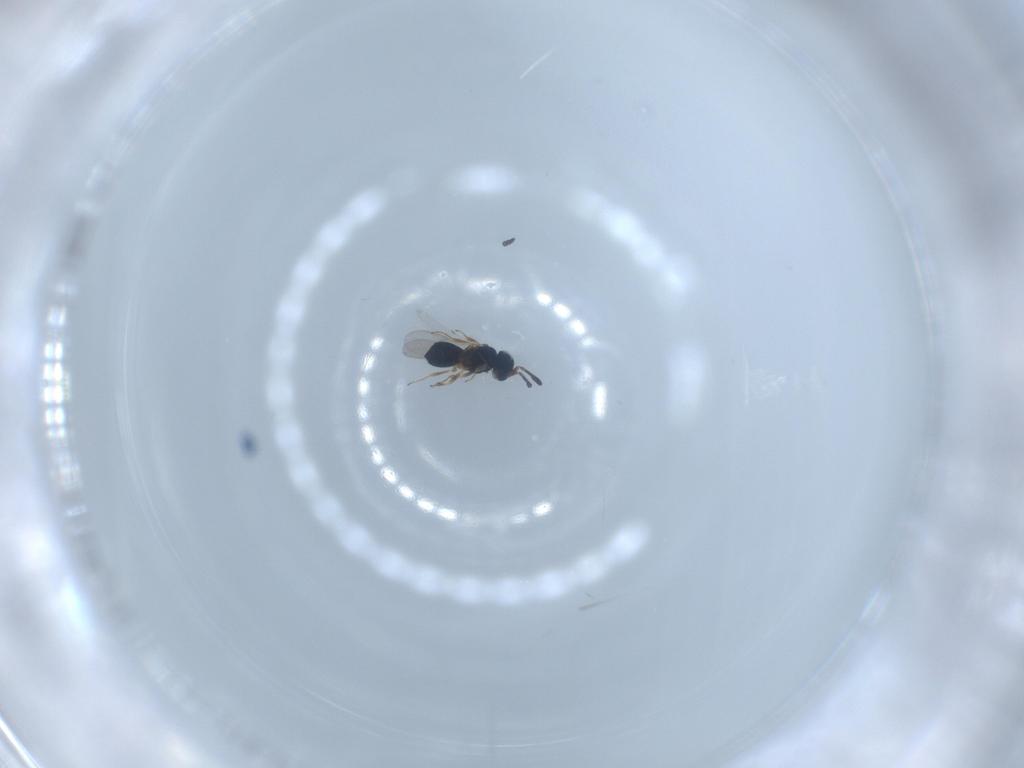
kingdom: Animalia
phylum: Arthropoda
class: Insecta
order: Hymenoptera
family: Scelionidae
